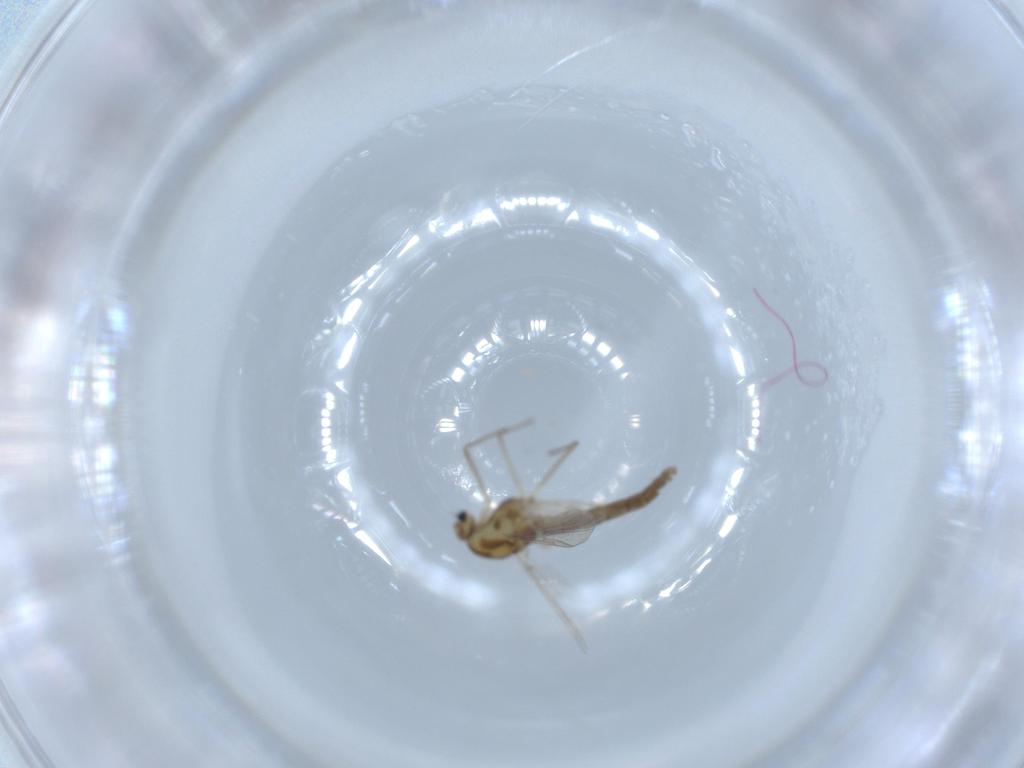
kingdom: Animalia
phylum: Arthropoda
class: Insecta
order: Diptera
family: Chironomidae
